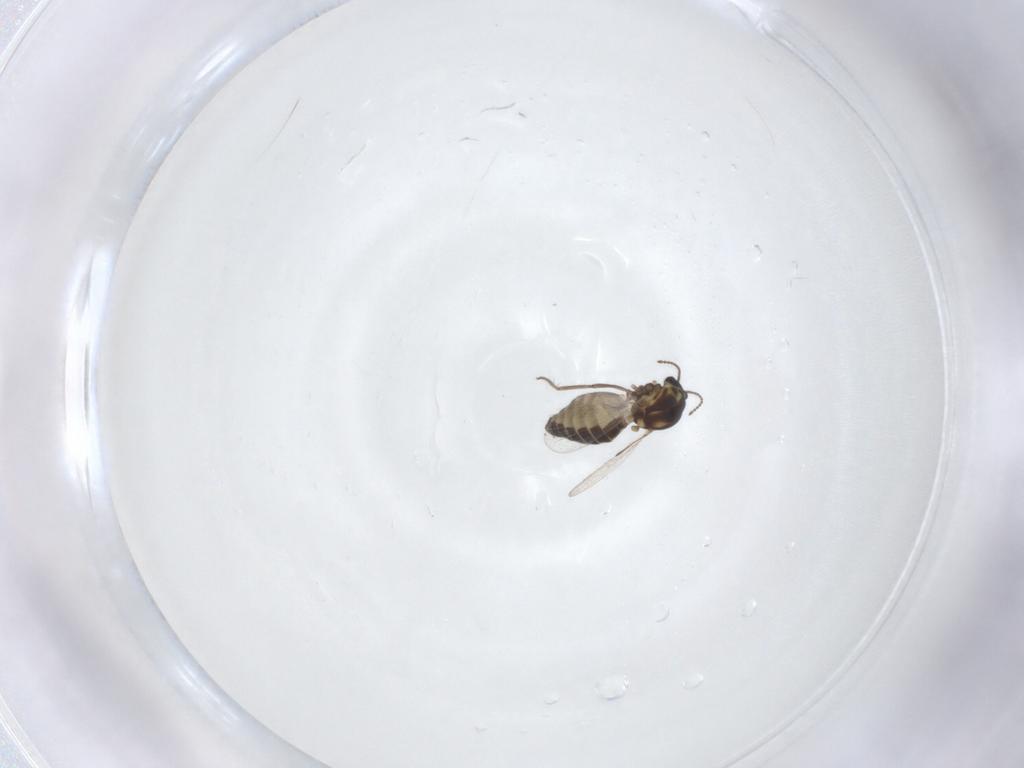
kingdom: Animalia
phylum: Arthropoda
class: Insecta
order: Diptera
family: Ceratopogonidae
